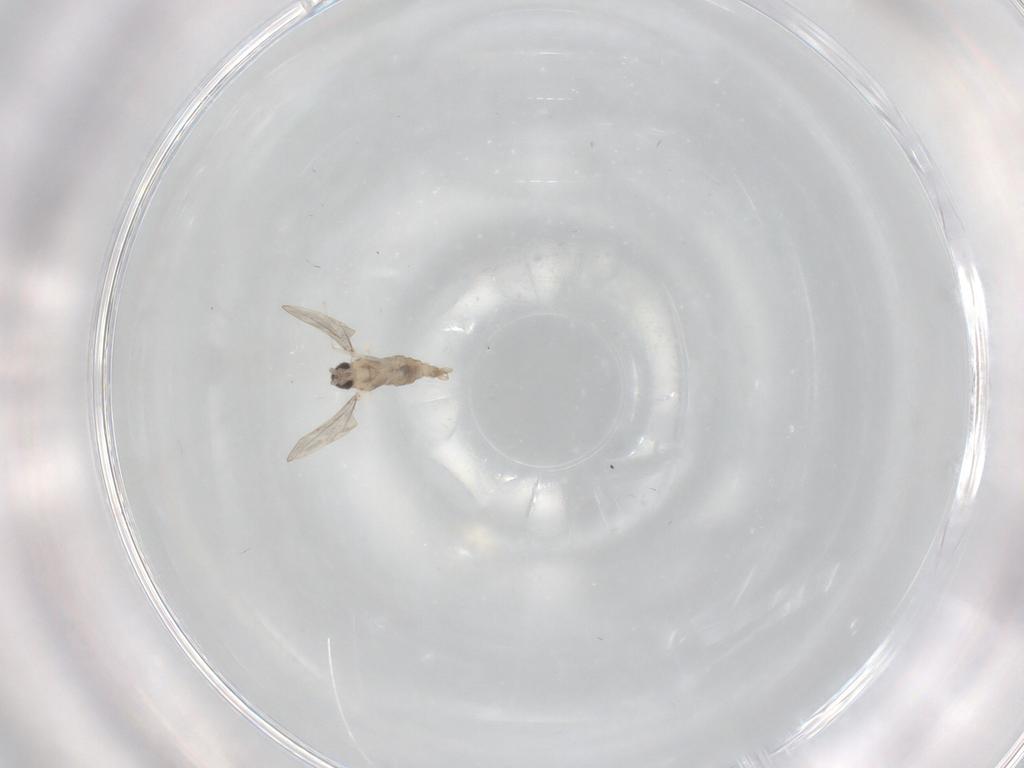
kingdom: Animalia
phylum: Arthropoda
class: Insecta
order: Diptera
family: Cecidomyiidae
